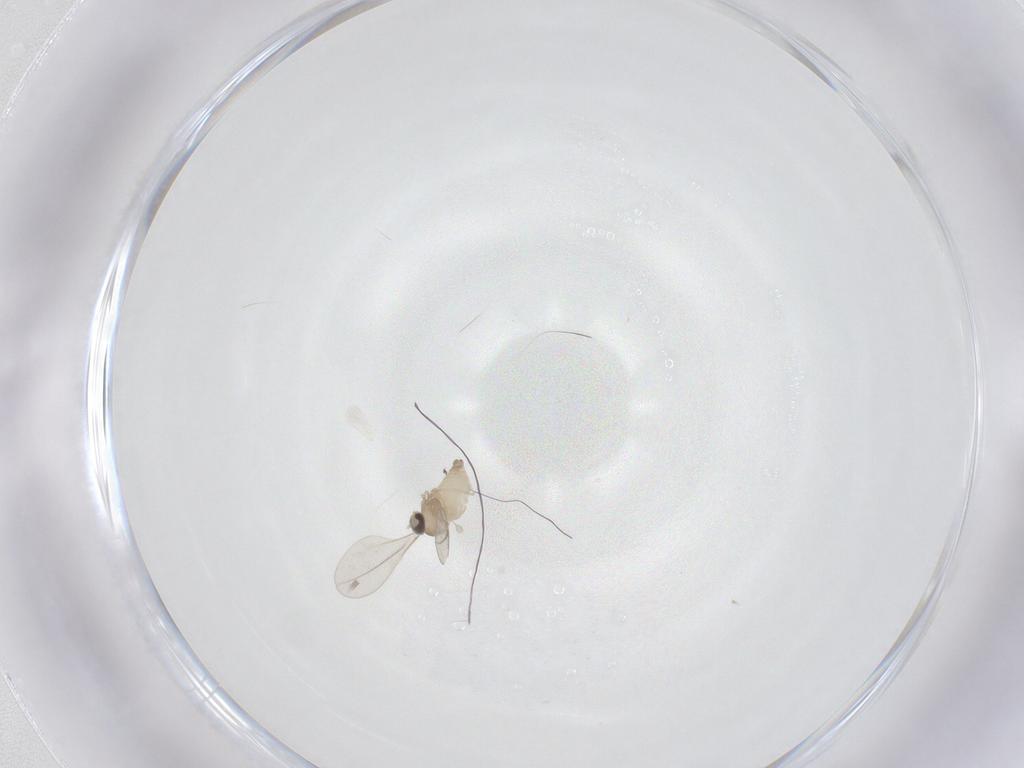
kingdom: Animalia
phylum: Arthropoda
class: Insecta
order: Diptera
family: Cecidomyiidae
